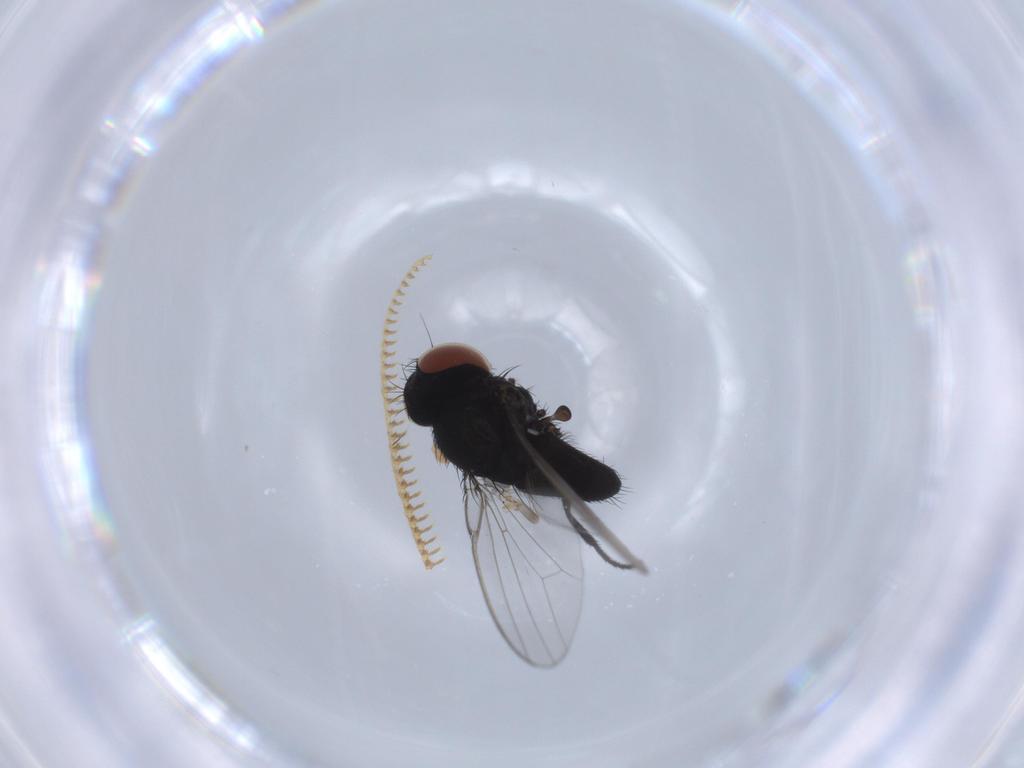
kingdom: Animalia
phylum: Arthropoda
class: Insecta
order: Diptera
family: Milichiidae
